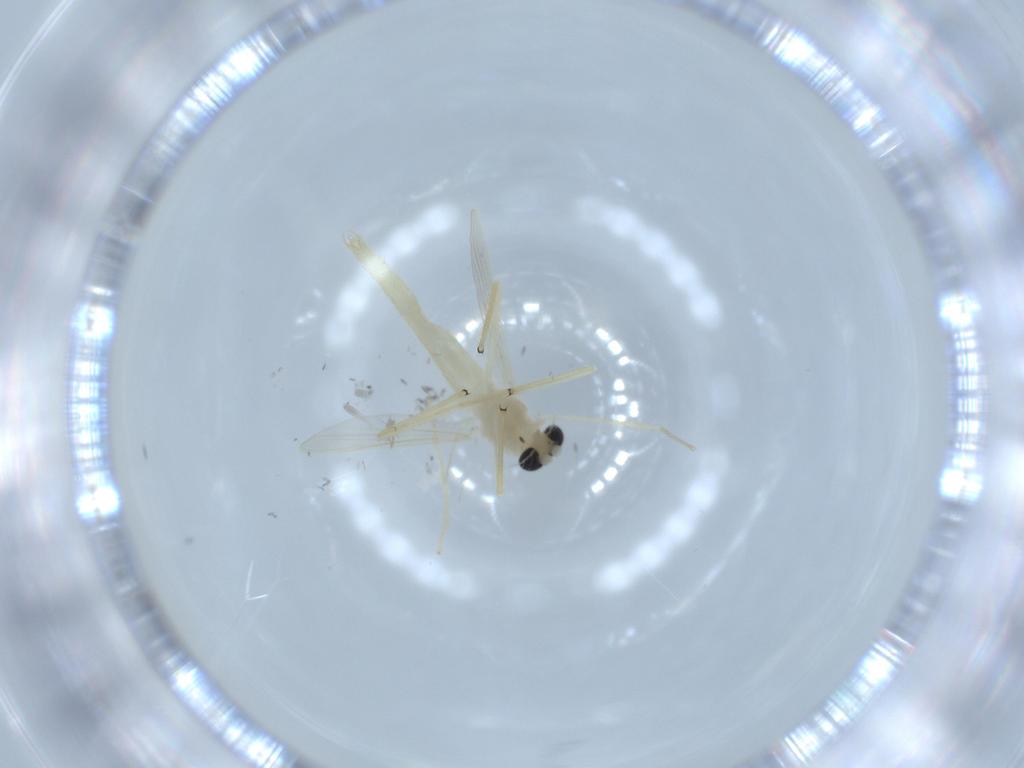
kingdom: Animalia
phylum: Arthropoda
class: Insecta
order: Diptera
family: Chironomidae
